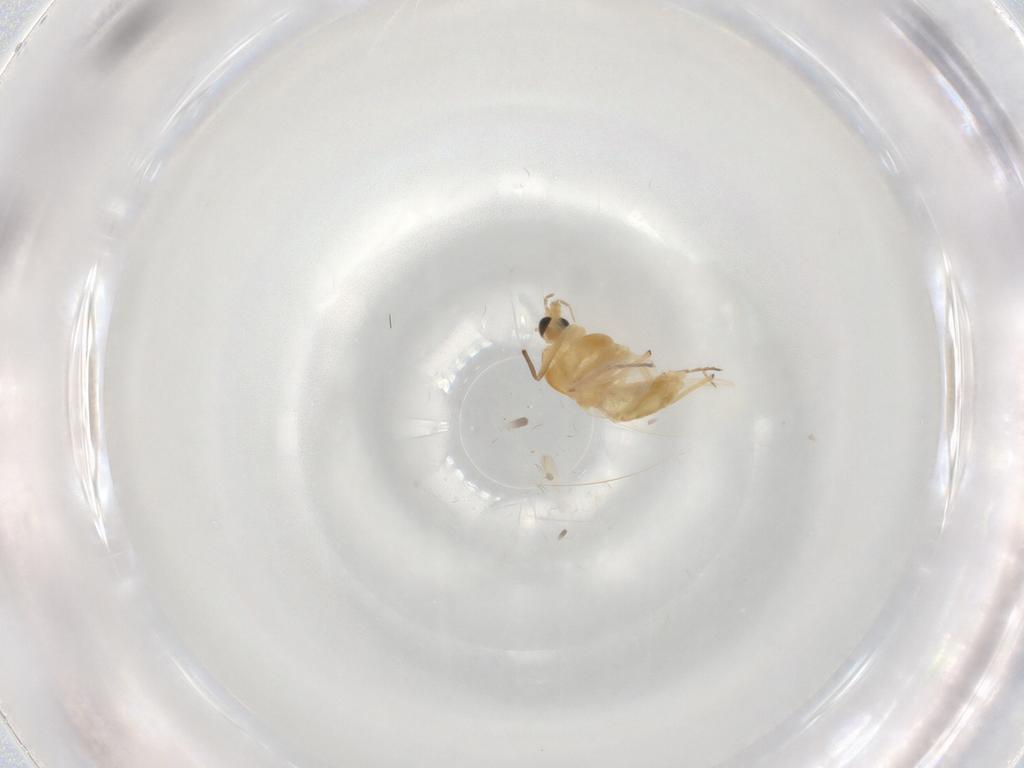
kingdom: Animalia
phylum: Arthropoda
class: Insecta
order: Diptera
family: Chironomidae
